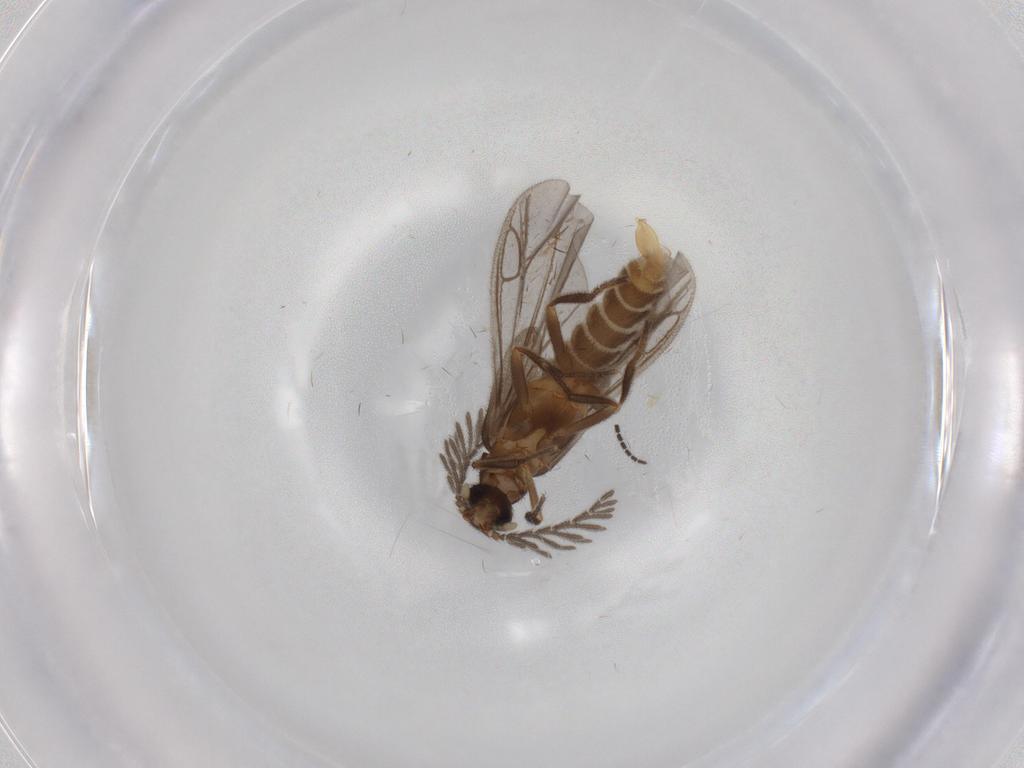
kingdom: Animalia
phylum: Arthropoda
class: Insecta
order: Coleoptera
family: Scarabaeidae
